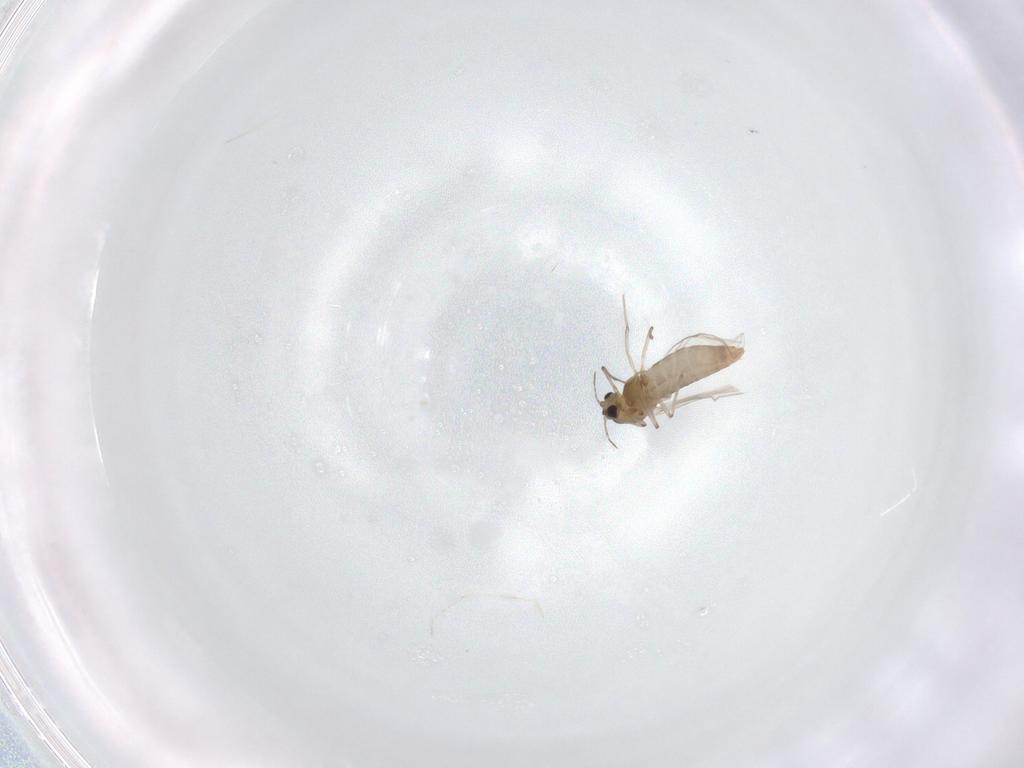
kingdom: Animalia
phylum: Arthropoda
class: Insecta
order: Diptera
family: Chironomidae
